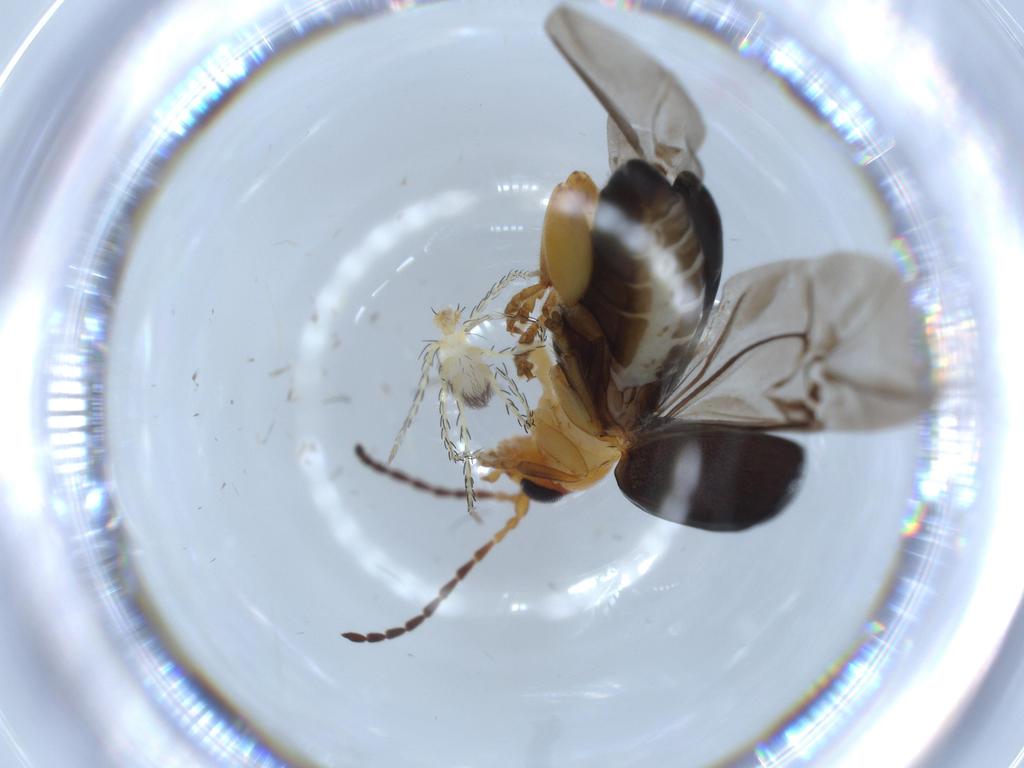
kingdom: Animalia
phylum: Arthropoda
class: Insecta
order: Coleoptera
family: Chrysomelidae
